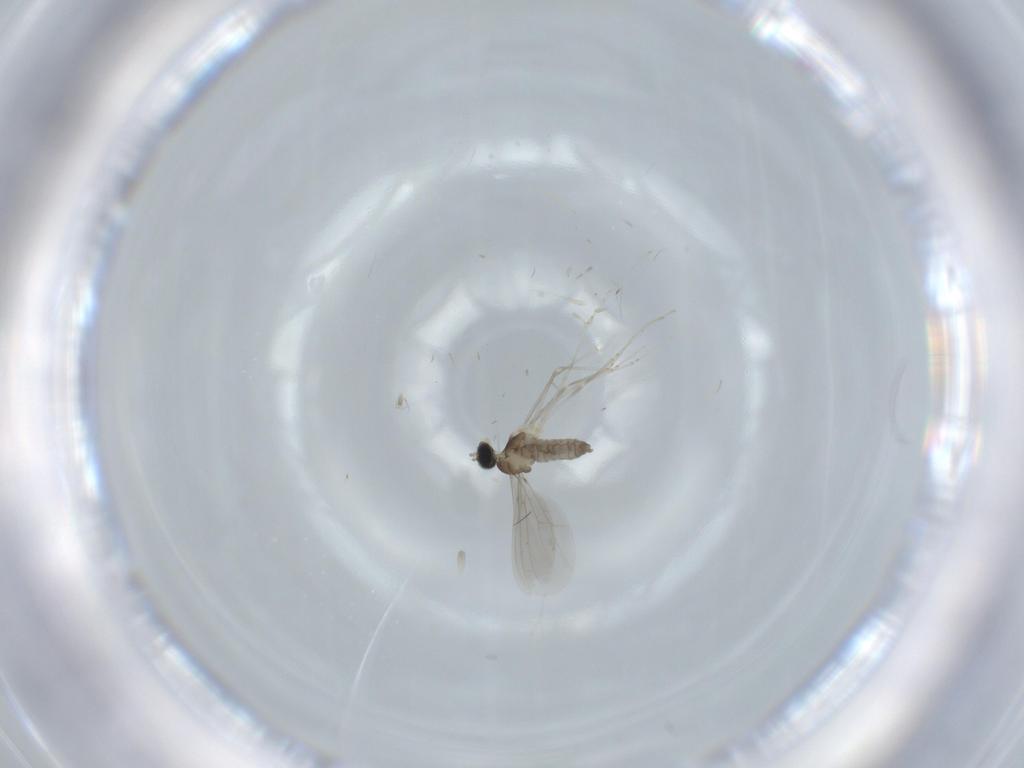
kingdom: Animalia
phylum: Arthropoda
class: Insecta
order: Diptera
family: Cecidomyiidae
